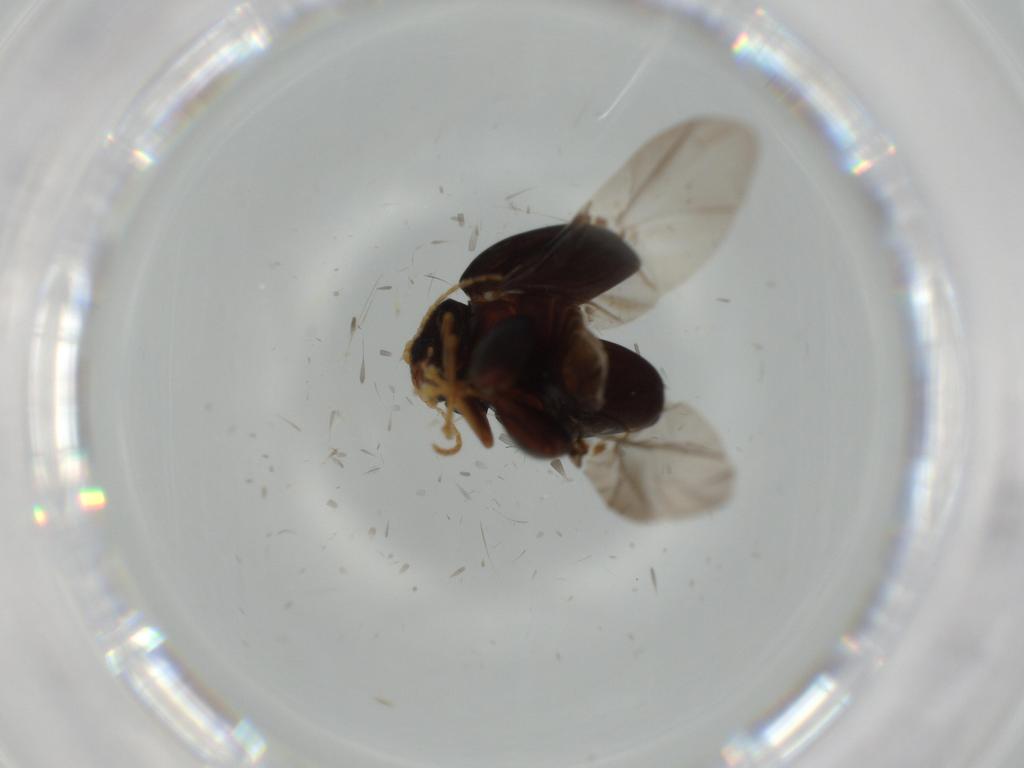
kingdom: Animalia
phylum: Arthropoda
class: Insecta
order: Coleoptera
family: Chrysomelidae
